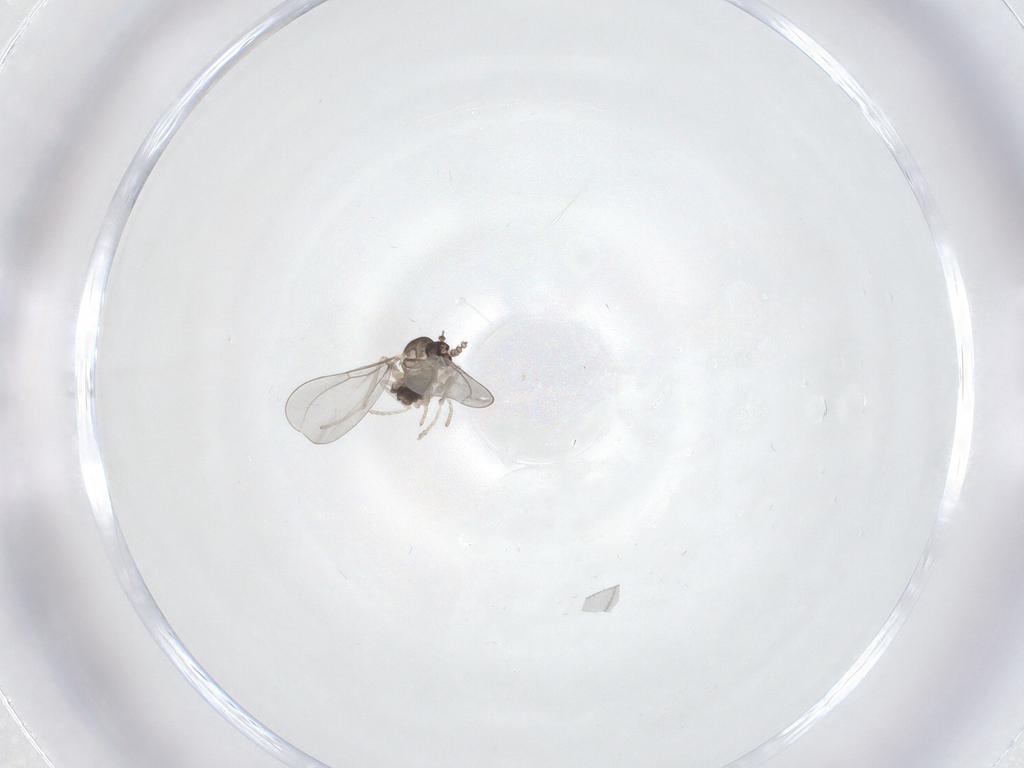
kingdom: Animalia
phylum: Arthropoda
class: Insecta
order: Diptera
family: Cecidomyiidae
